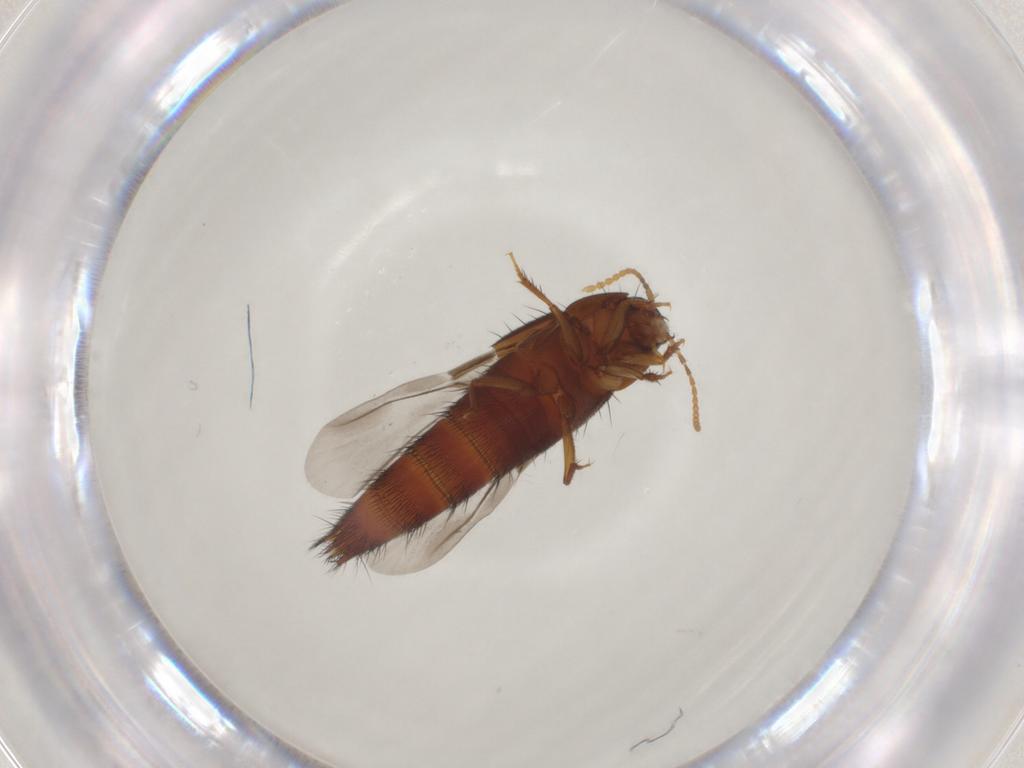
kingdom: Animalia
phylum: Arthropoda
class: Insecta
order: Coleoptera
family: Staphylinidae
